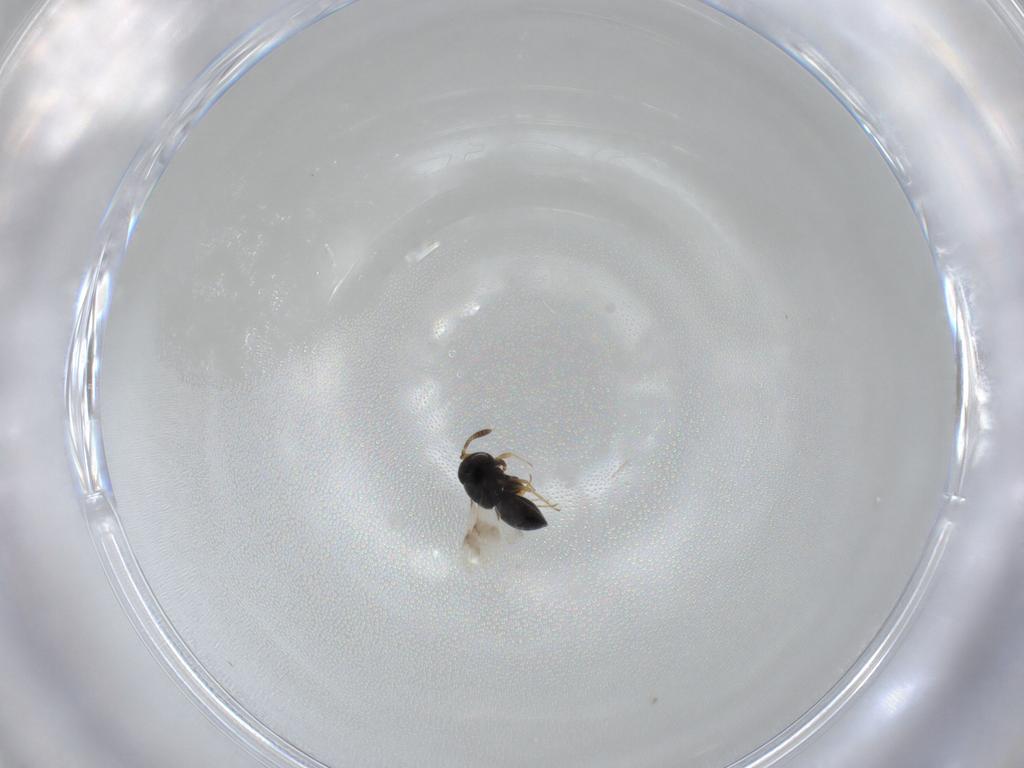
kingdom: Animalia
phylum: Arthropoda
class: Insecta
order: Hymenoptera
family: Scelionidae
